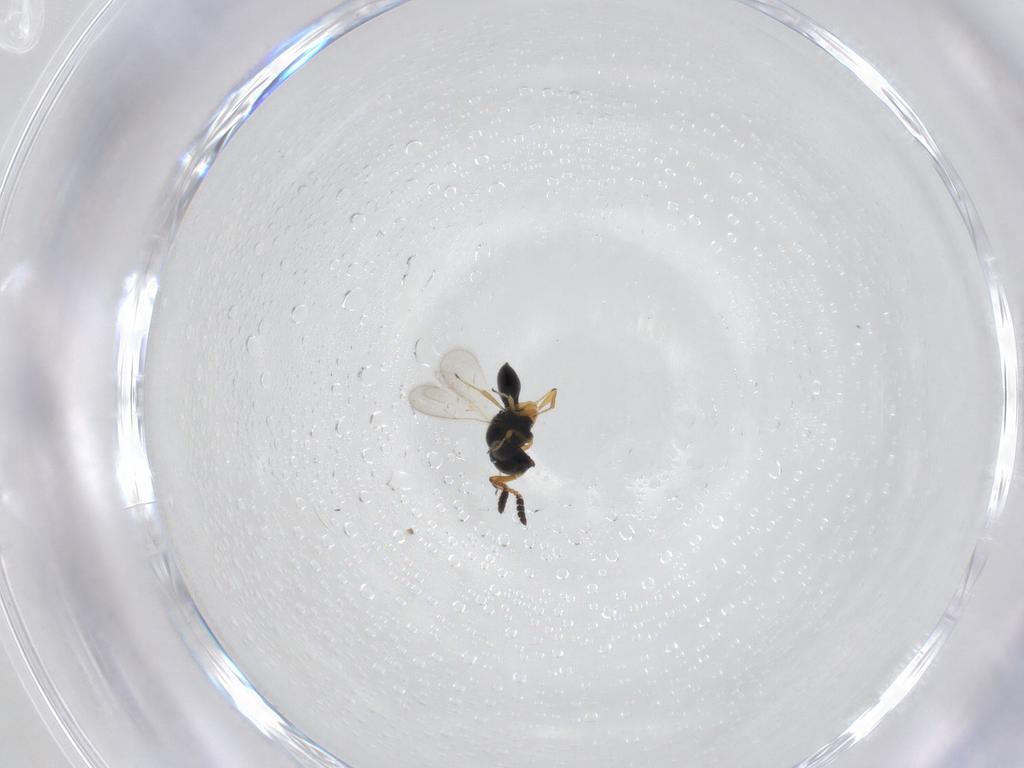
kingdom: Animalia
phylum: Arthropoda
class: Insecta
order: Hymenoptera
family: Scelionidae
